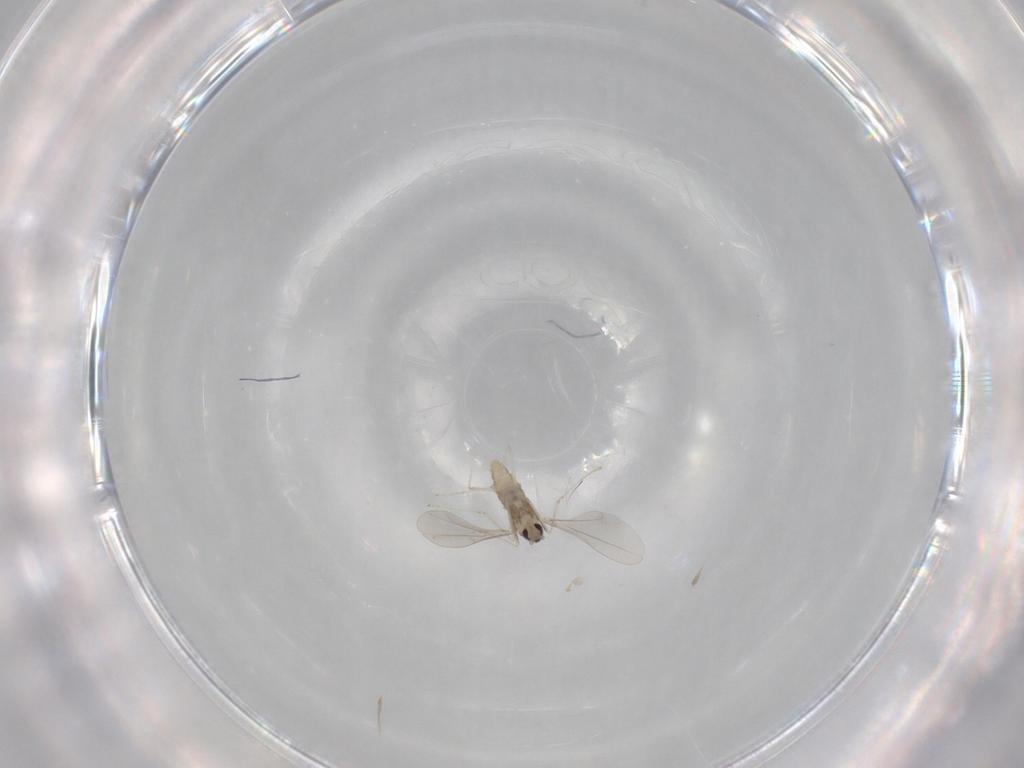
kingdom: Animalia
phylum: Arthropoda
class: Insecta
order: Diptera
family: Cecidomyiidae
